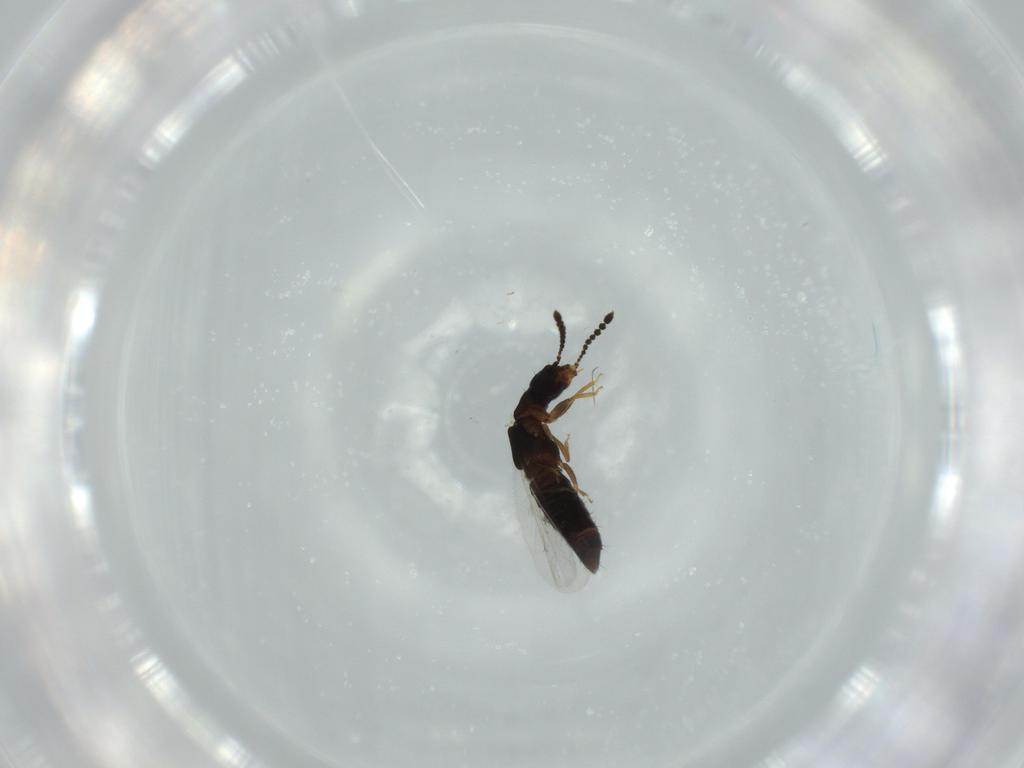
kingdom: Animalia
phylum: Arthropoda
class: Insecta
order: Coleoptera
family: Staphylinidae
